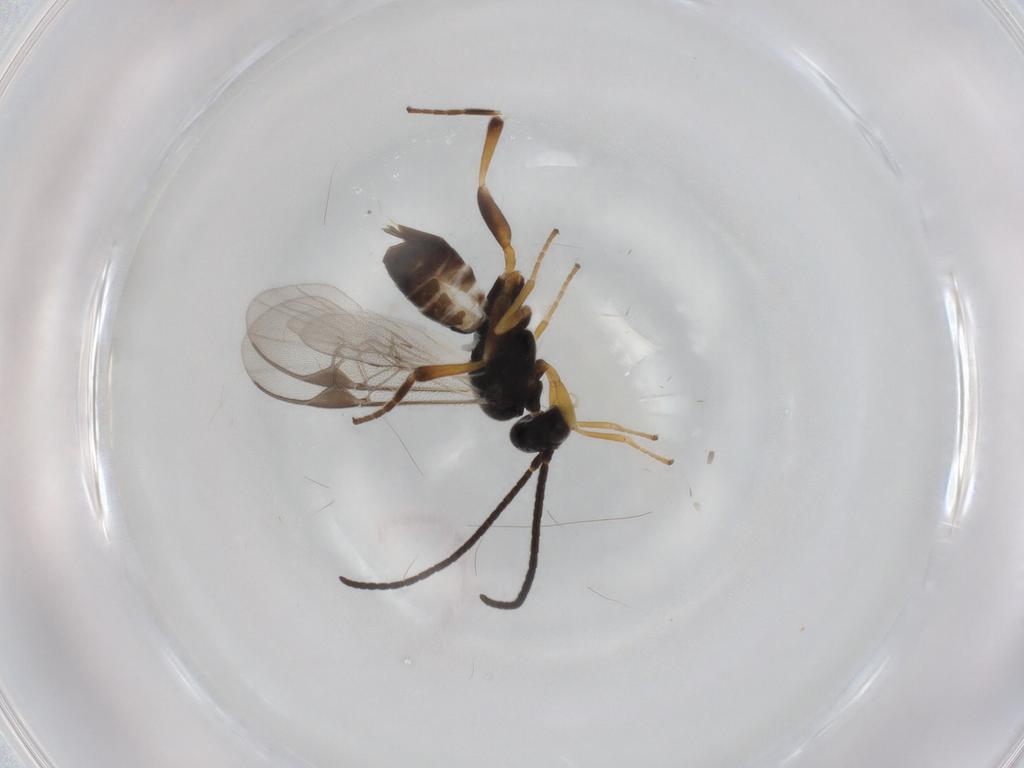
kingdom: Animalia
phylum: Arthropoda
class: Insecta
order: Hymenoptera
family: Braconidae
